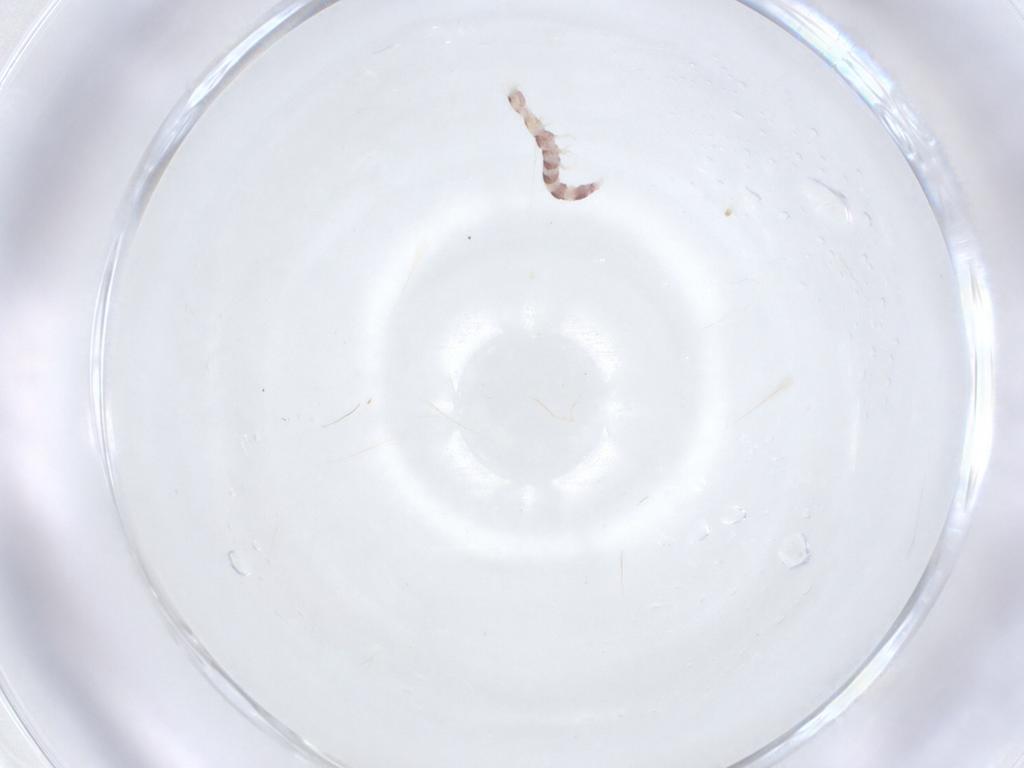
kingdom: Animalia
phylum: Arthropoda
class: Insecta
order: Neuroptera
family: Berothidae
